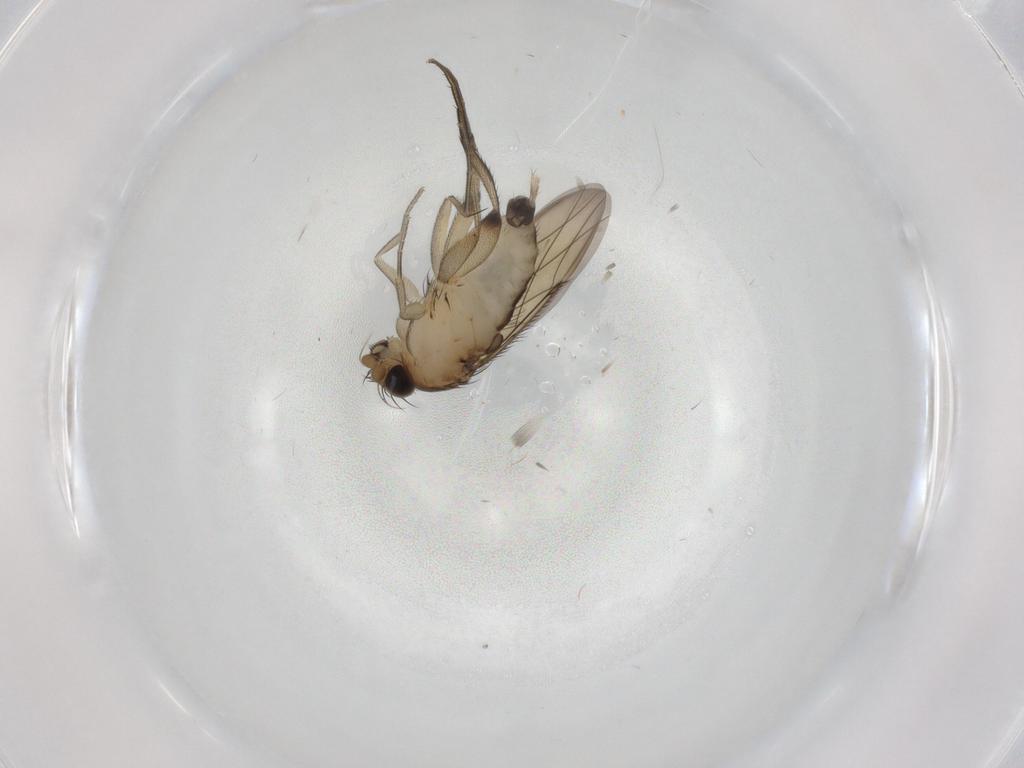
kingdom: Animalia
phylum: Arthropoda
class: Insecta
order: Diptera
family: Phoridae
